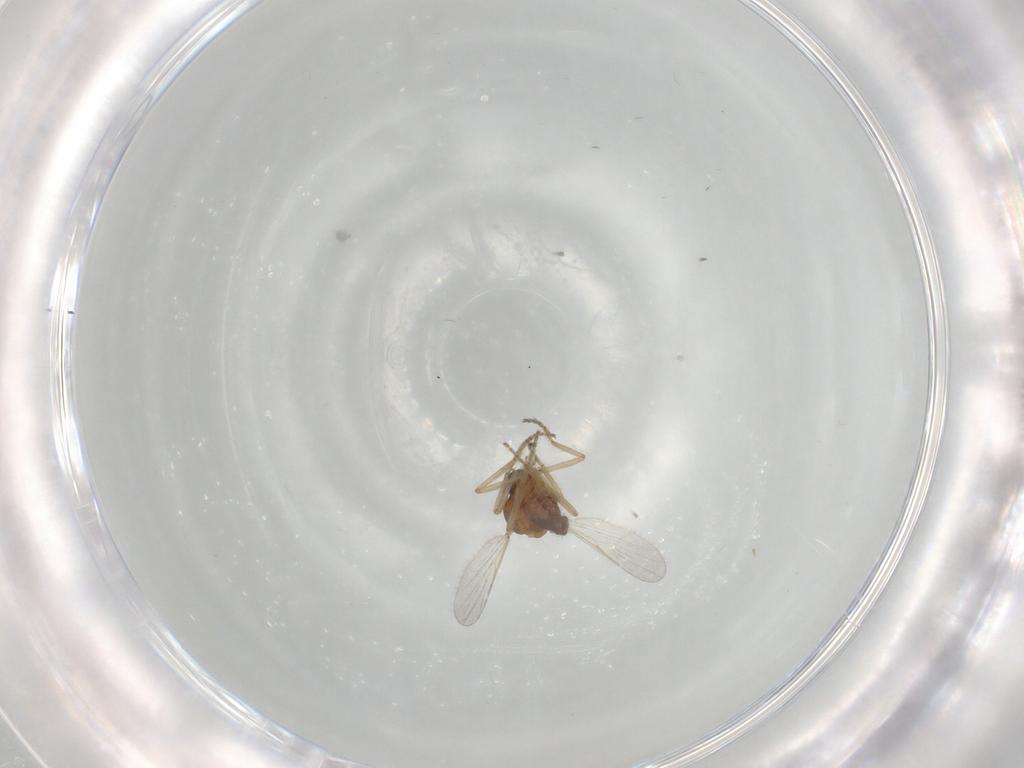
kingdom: Animalia
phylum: Arthropoda
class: Insecta
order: Diptera
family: Ceratopogonidae
